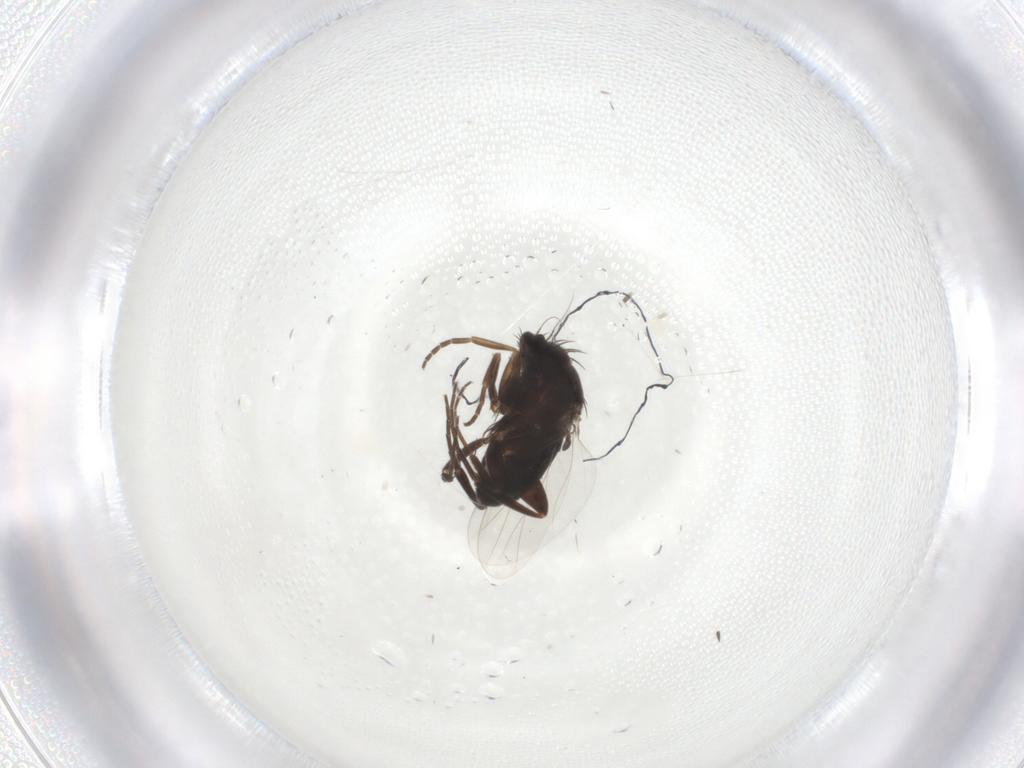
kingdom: Animalia
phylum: Arthropoda
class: Insecta
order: Diptera
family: Phoridae
